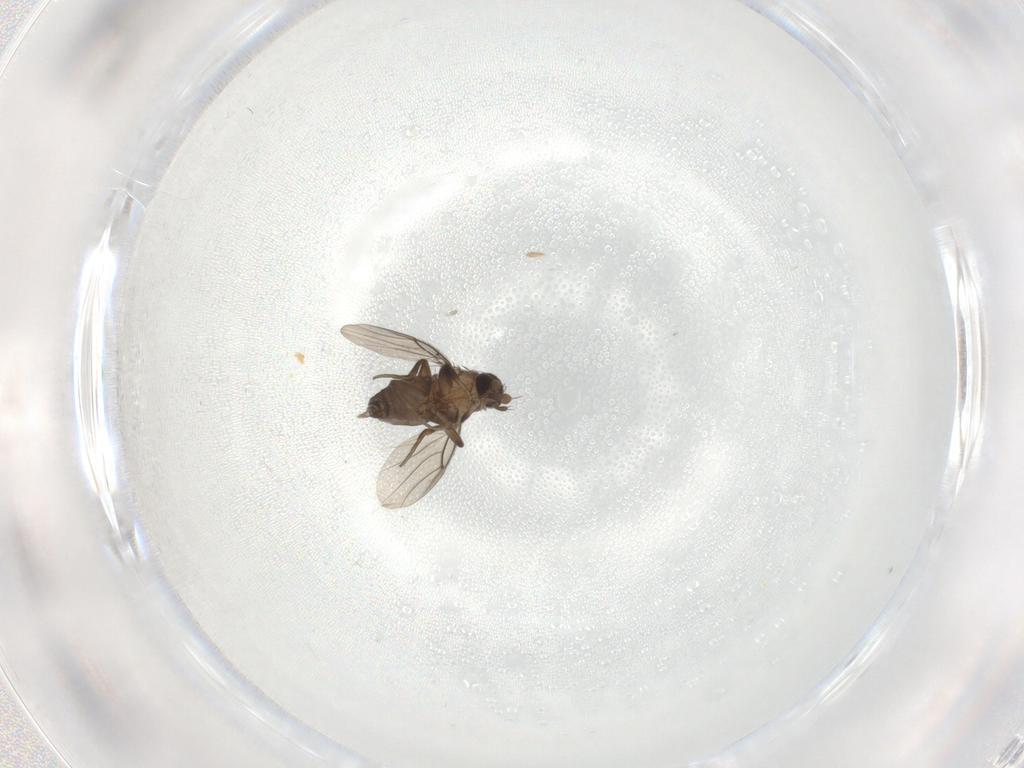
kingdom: Animalia
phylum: Arthropoda
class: Insecta
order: Diptera
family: Phoridae
